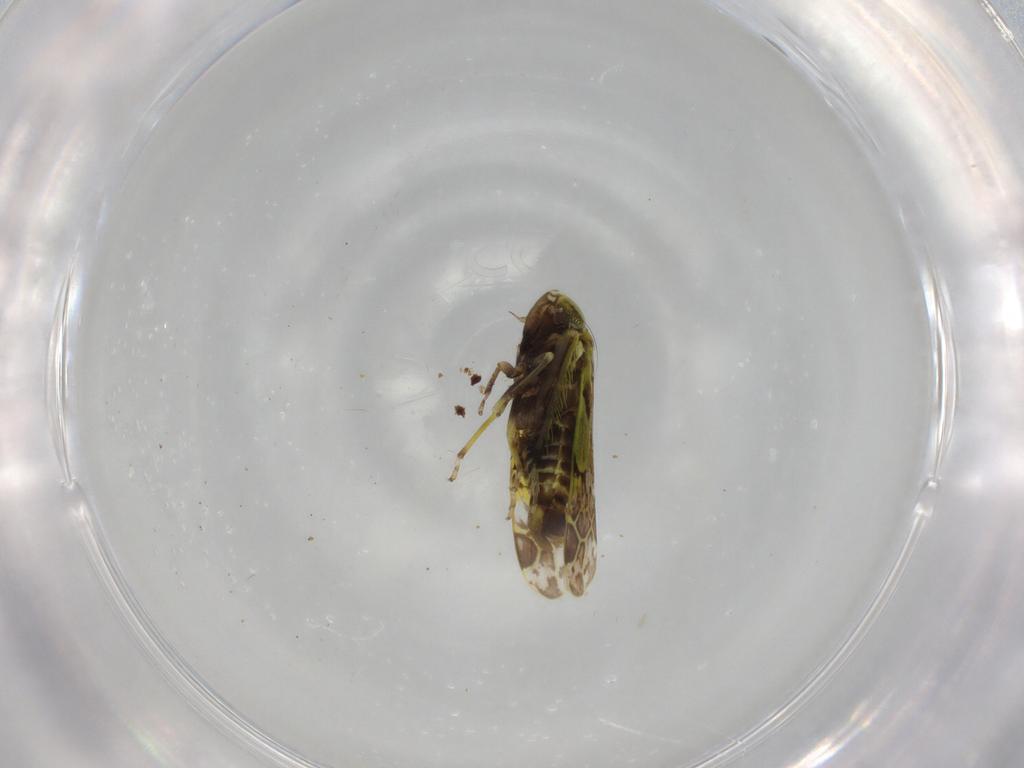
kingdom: Animalia
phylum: Arthropoda
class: Insecta
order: Hemiptera
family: Cicadellidae
